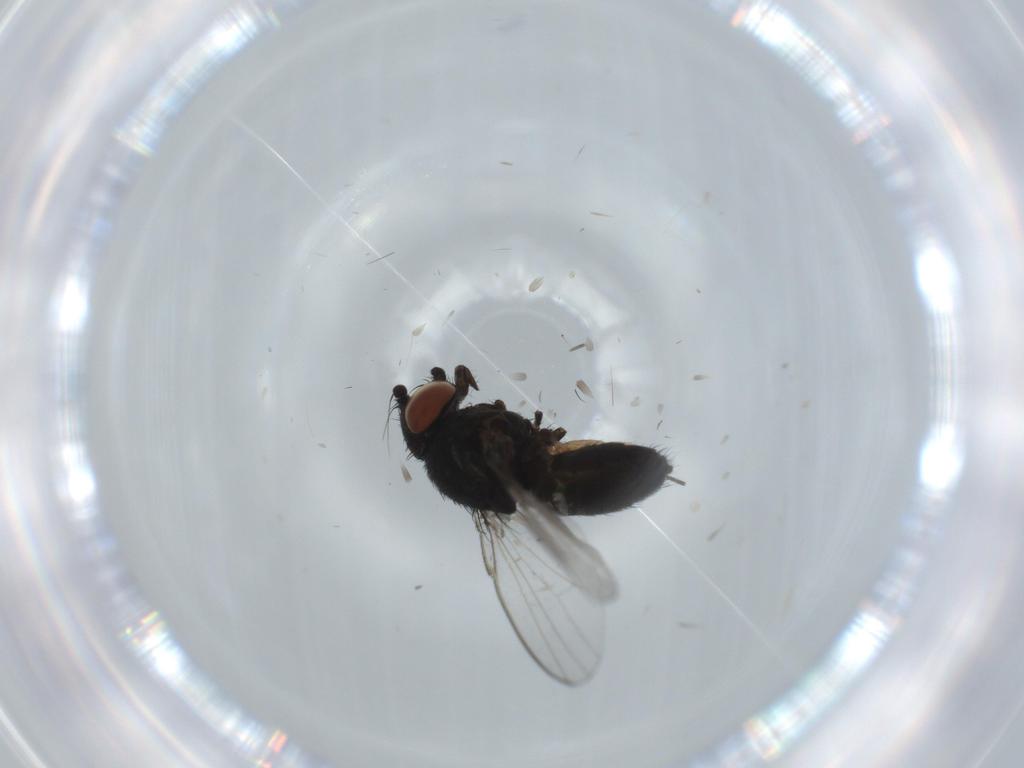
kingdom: Animalia
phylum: Arthropoda
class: Insecta
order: Diptera
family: Milichiidae
